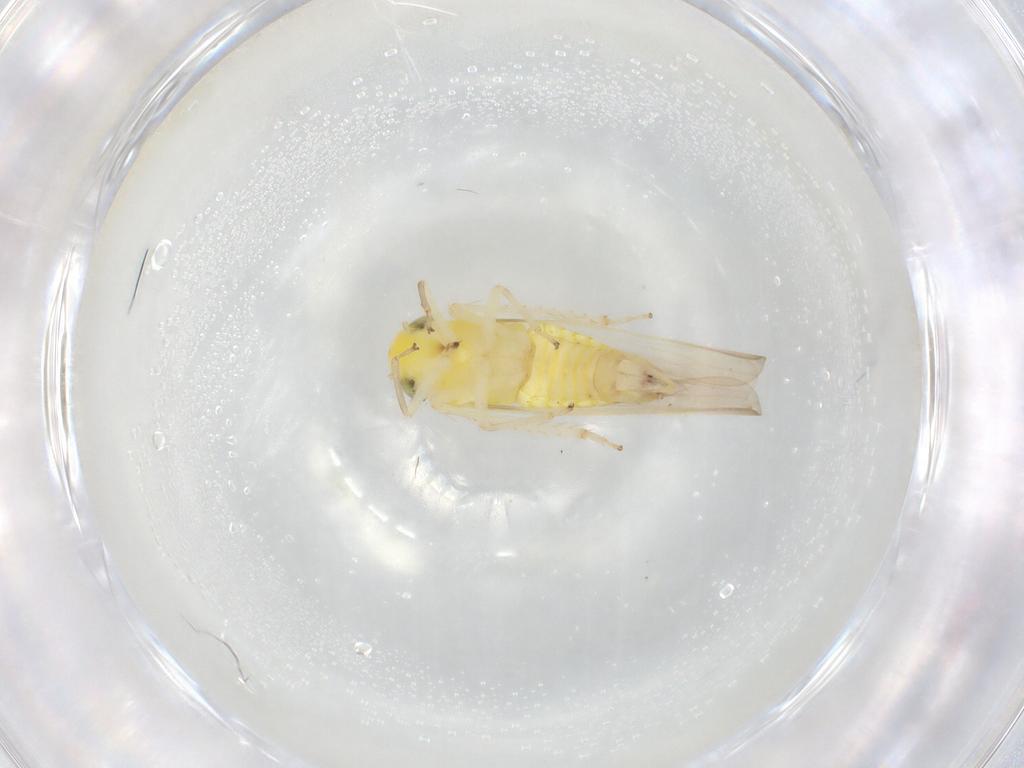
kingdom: Animalia
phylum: Arthropoda
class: Insecta
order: Hemiptera
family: Cicadellidae
